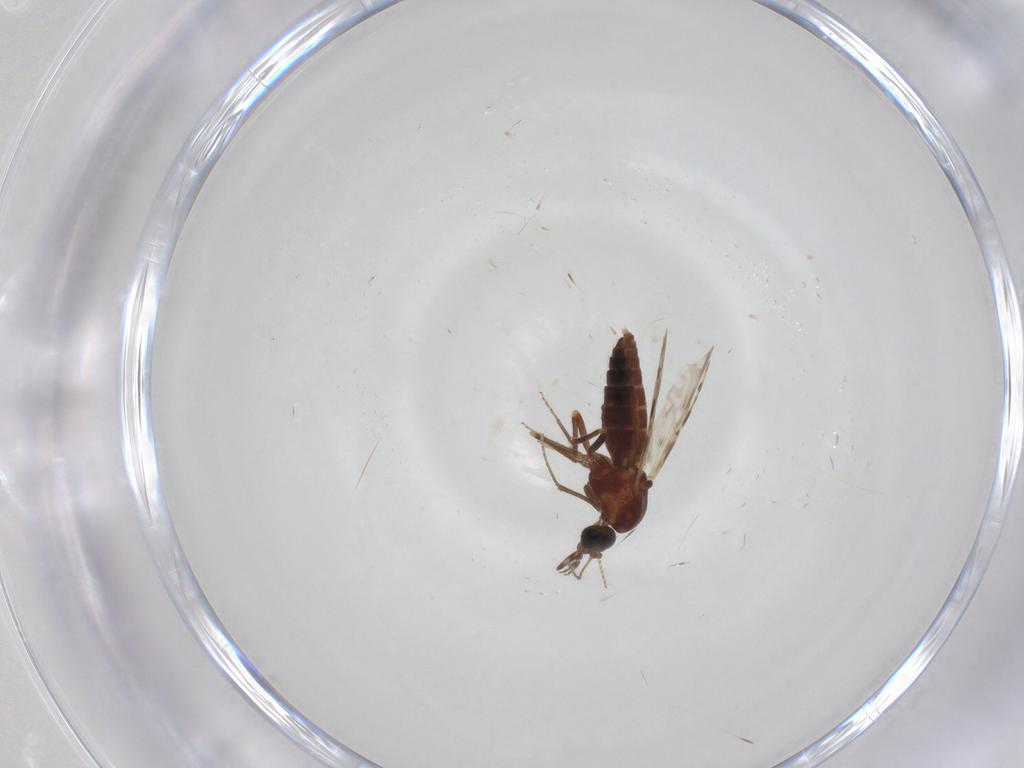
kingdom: Animalia
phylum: Arthropoda
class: Insecta
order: Diptera
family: Ceratopogonidae
